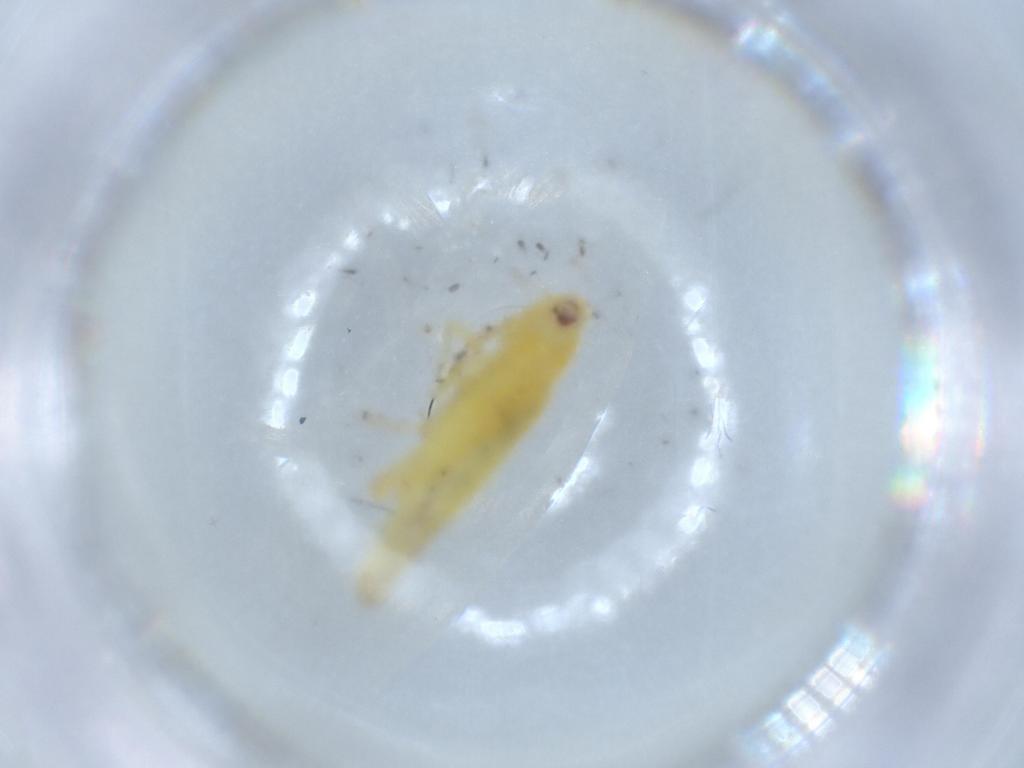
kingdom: Animalia
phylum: Arthropoda
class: Insecta
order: Hemiptera
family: Cicadellidae
